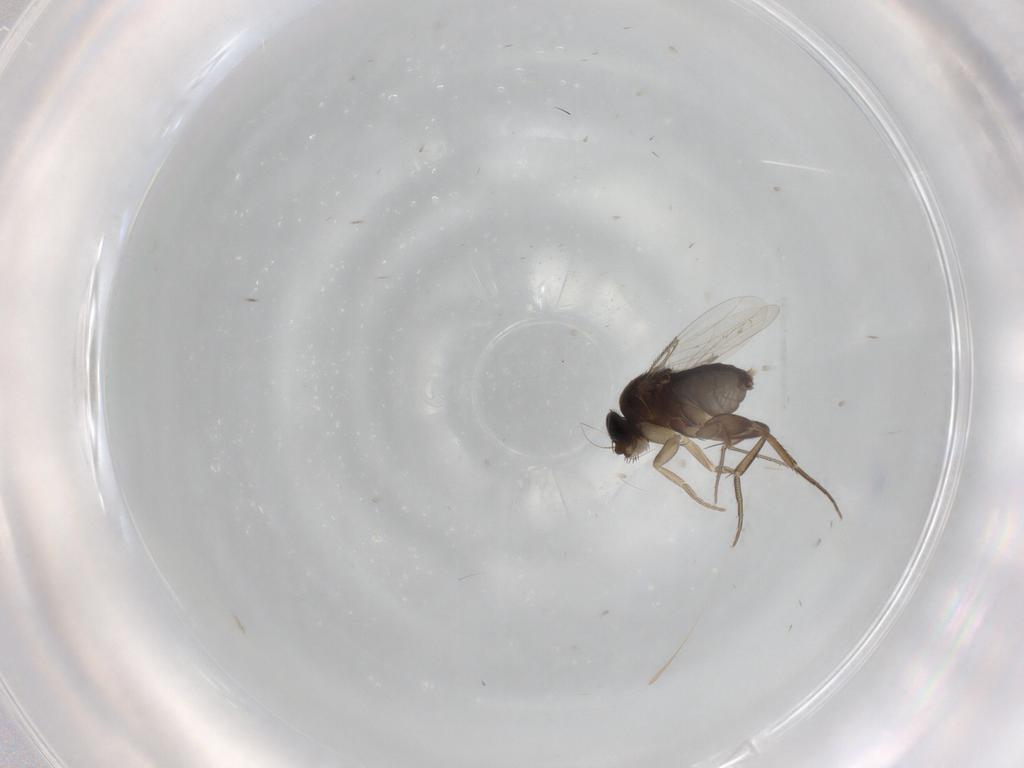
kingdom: Animalia
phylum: Arthropoda
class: Insecta
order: Diptera
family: Phoridae
